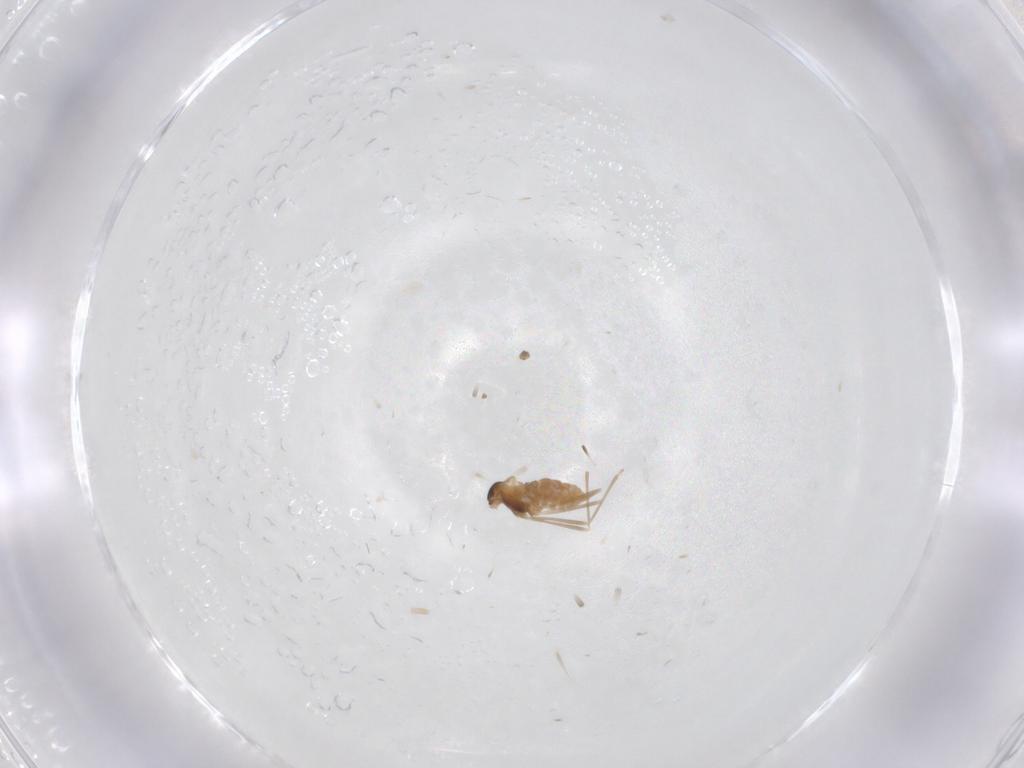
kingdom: Animalia
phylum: Arthropoda
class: Insecta
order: Diptera
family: Cecidomyiidae
